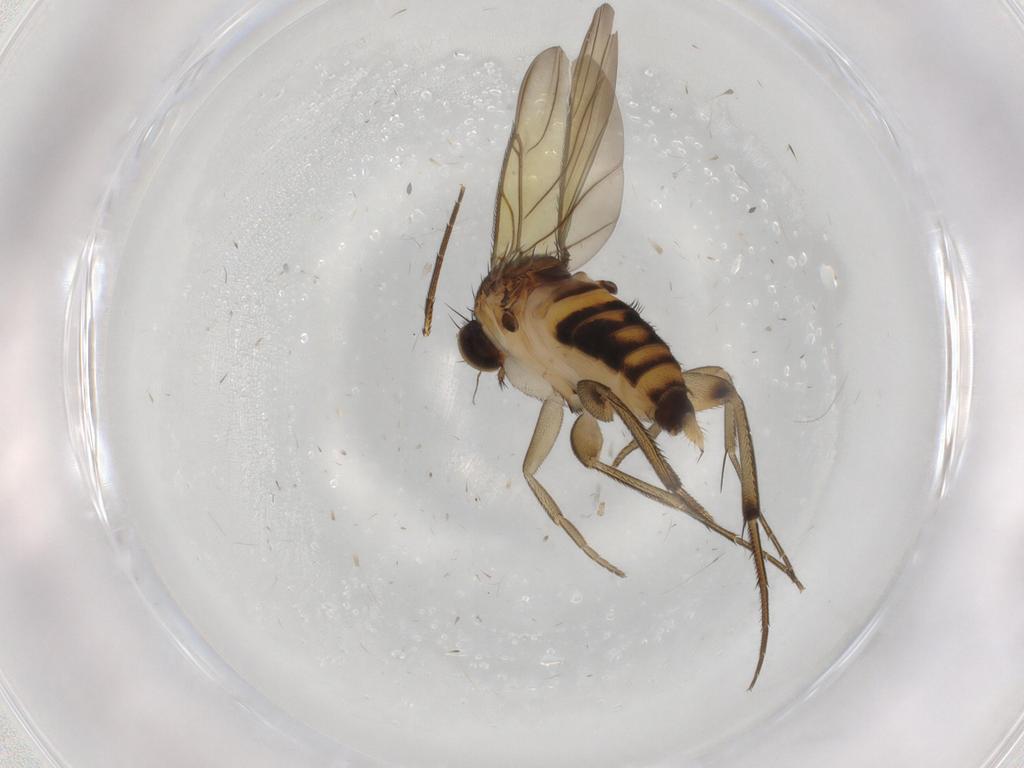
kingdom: Animalia
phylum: Arthropoda
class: Insecta
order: Diptera
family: Phoridae
